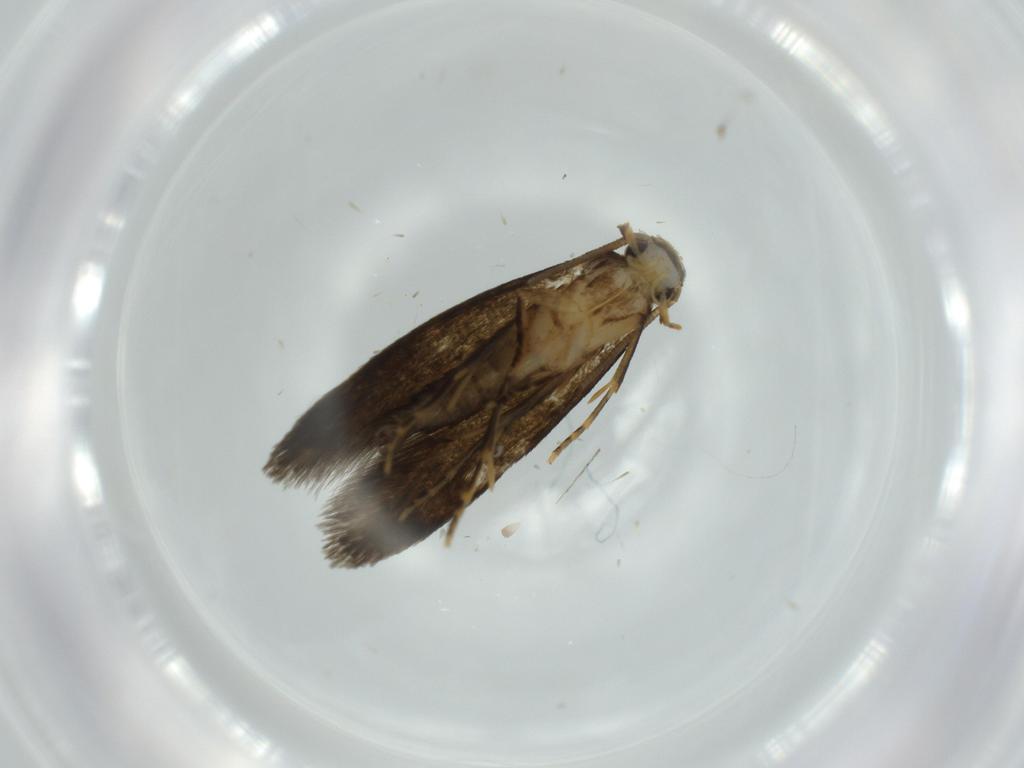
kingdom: Animalia
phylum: Arthropoda
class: Insecta
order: Lepidoptera
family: Tineidae
